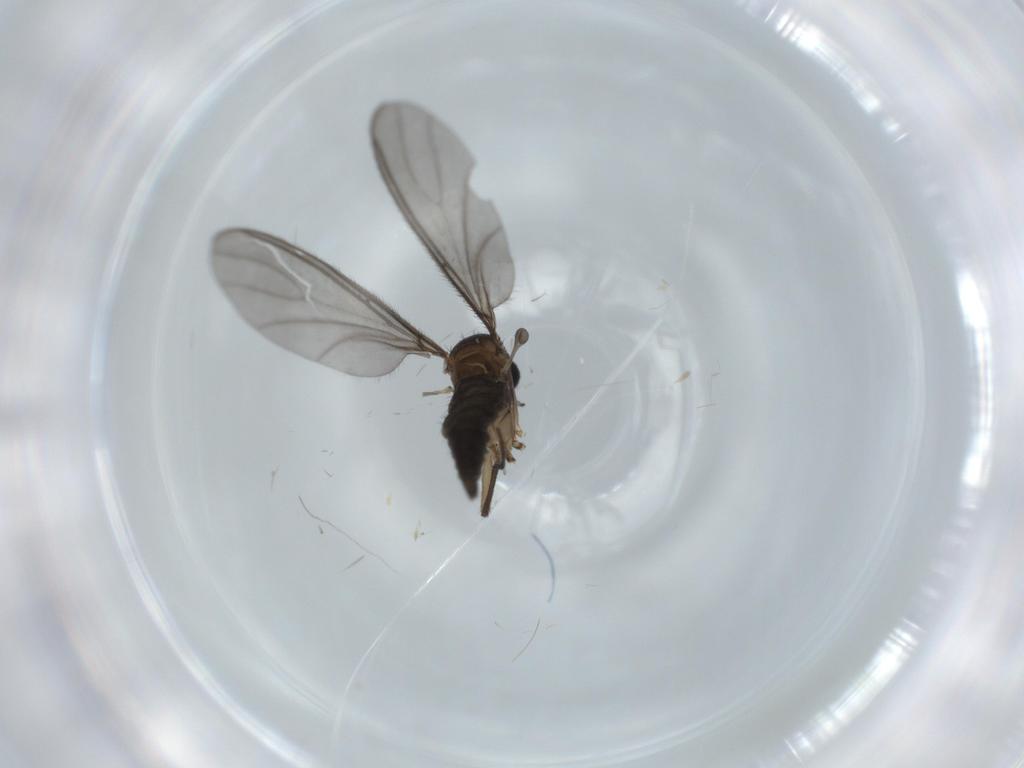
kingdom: Animalia
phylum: Arthropoda
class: Insecta
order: Diptera
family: Sciaridae
